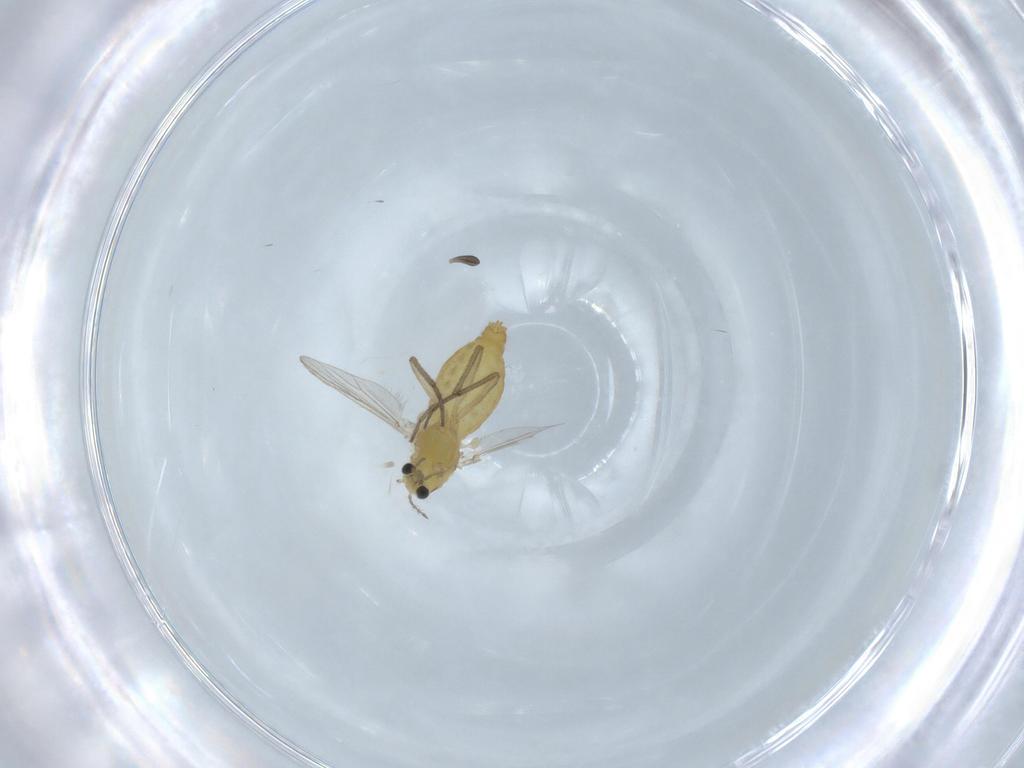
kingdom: Animalia
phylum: Arthropoda
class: Insecta
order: Diptera
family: Chironomidae
